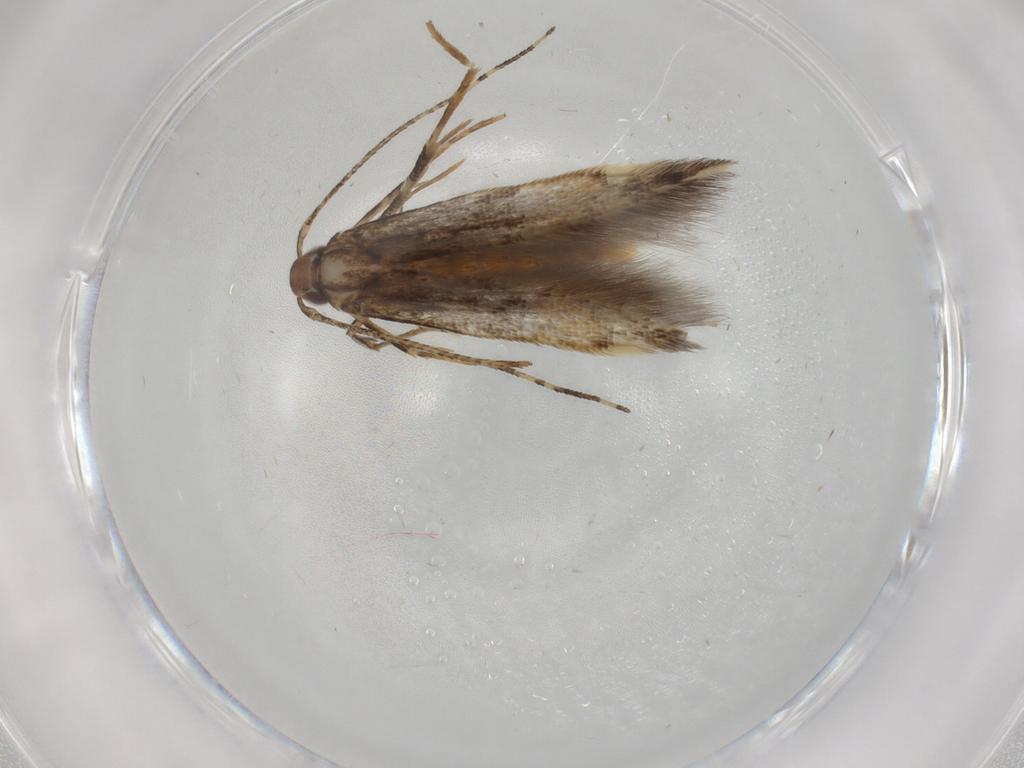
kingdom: Animalia
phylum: Arthropoda
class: Insecta
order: Lepidoptera
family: Cosmopterigidae
